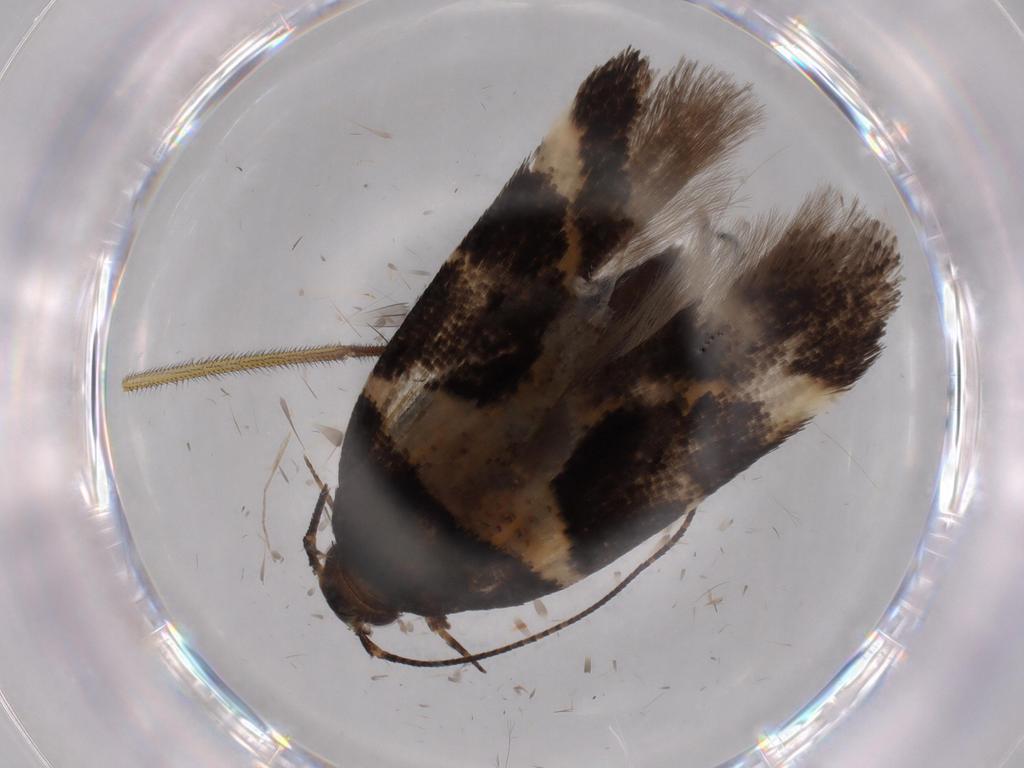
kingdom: Animalia
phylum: Arthropoda
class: Insecta
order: Lepidoptera
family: Gelechiidae
